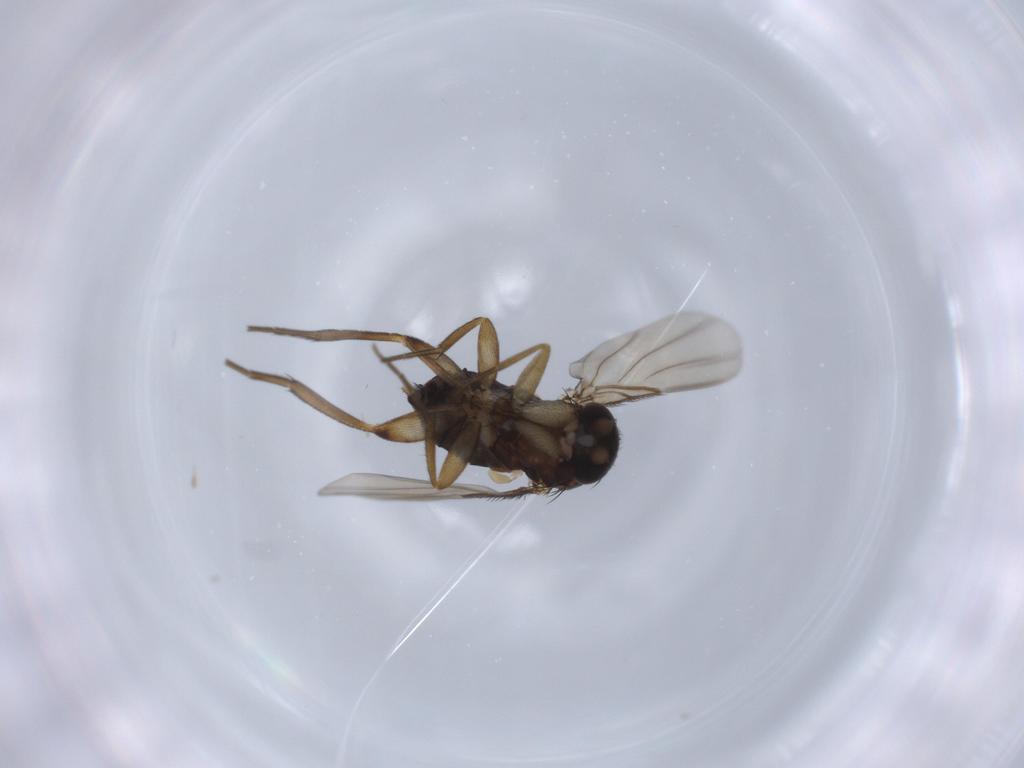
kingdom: Animalia
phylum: Arthropoda
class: Insecta
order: Diptera
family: Phoridae
